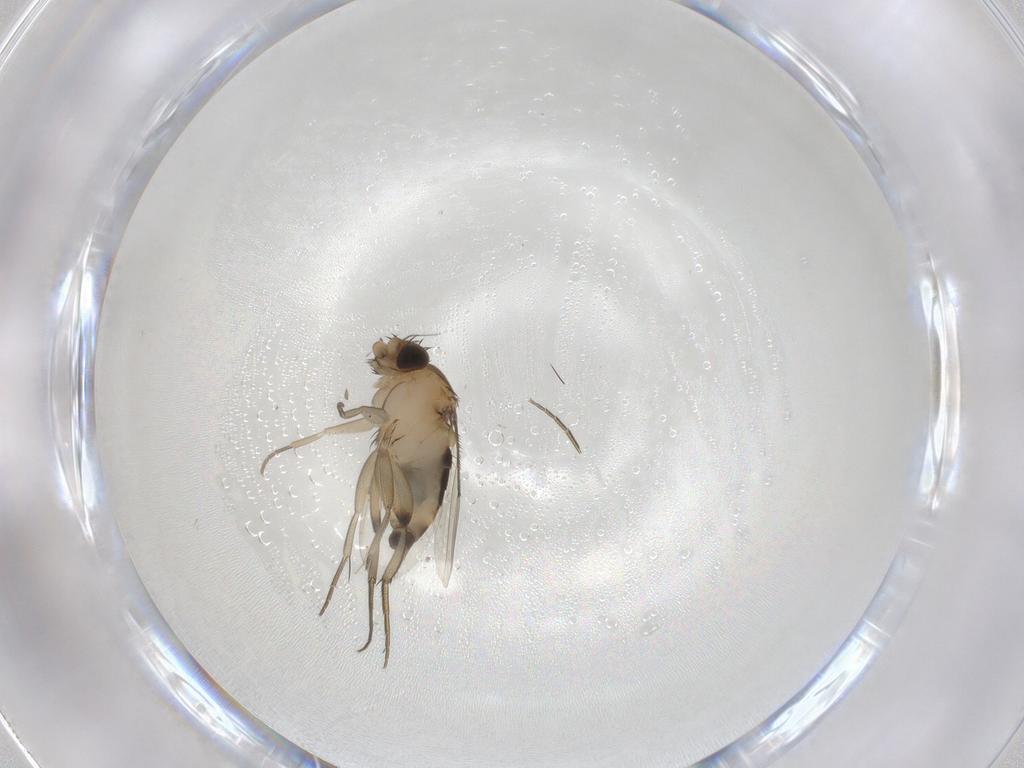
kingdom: Animalia
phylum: Arthropoda
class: Insecta
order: Diptera
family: Phoridae
